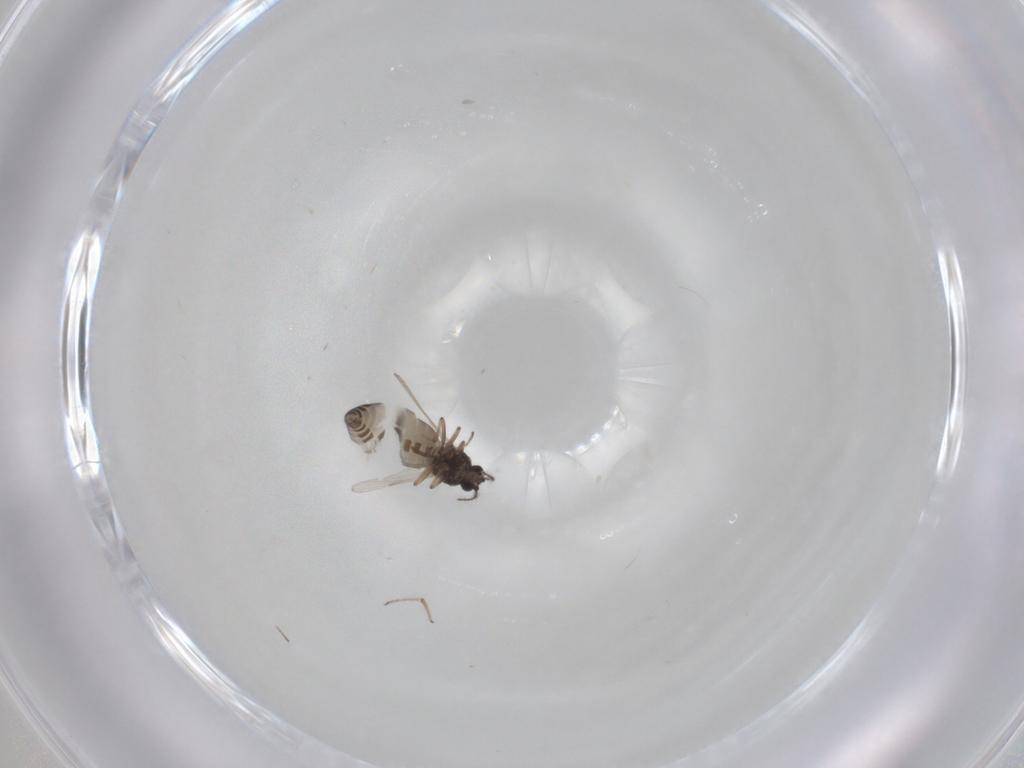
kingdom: Animalia
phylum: Arthropoda
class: Insecta
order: Diptera
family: Ceratopogonidae
